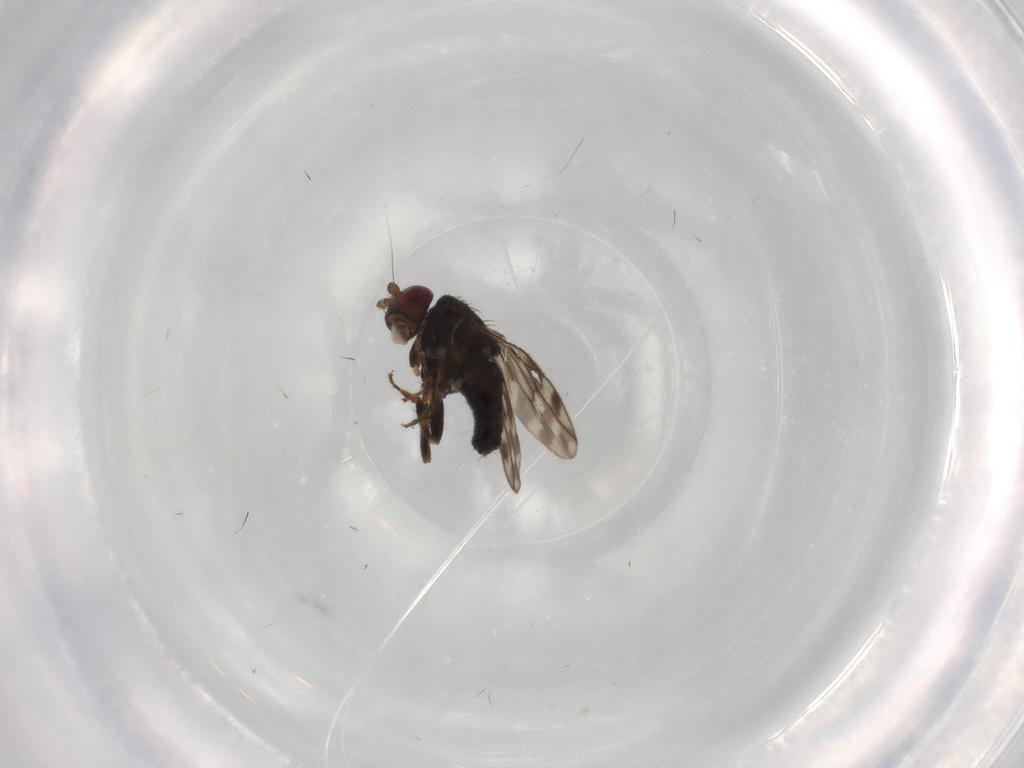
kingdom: Animalia
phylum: Arthropoda
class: Insecta
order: Diptera
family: Sphaeroceridae
